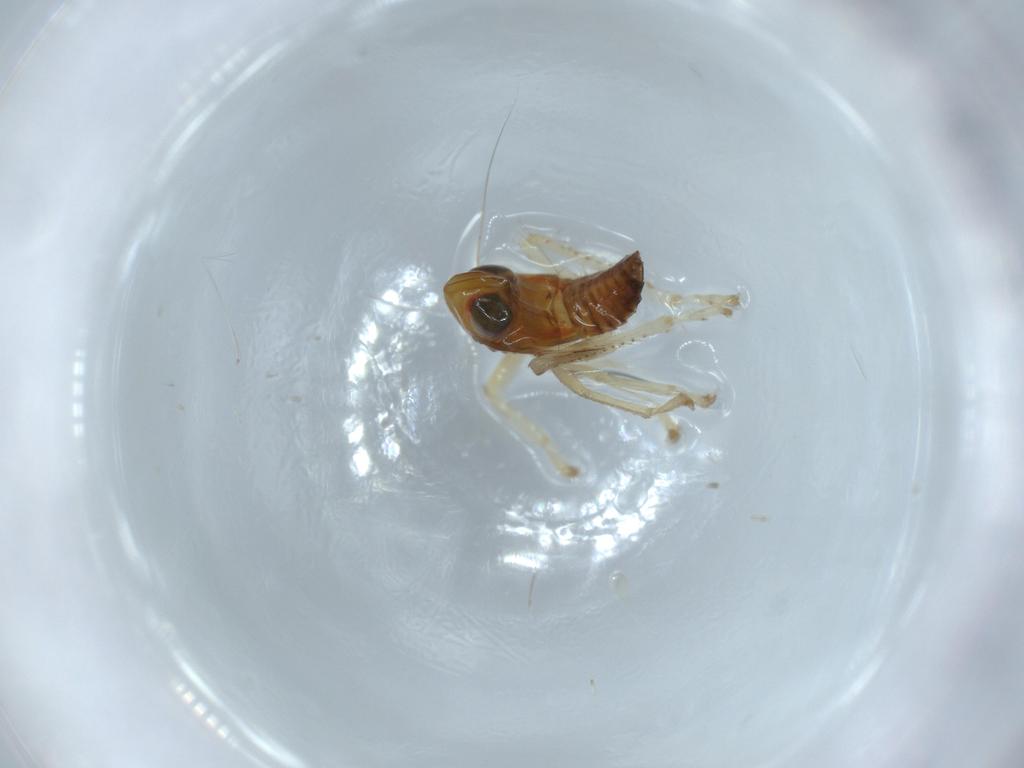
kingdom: Animalia
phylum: Arthropoda
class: Insecta
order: Hemiptera
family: Cicadellidae
